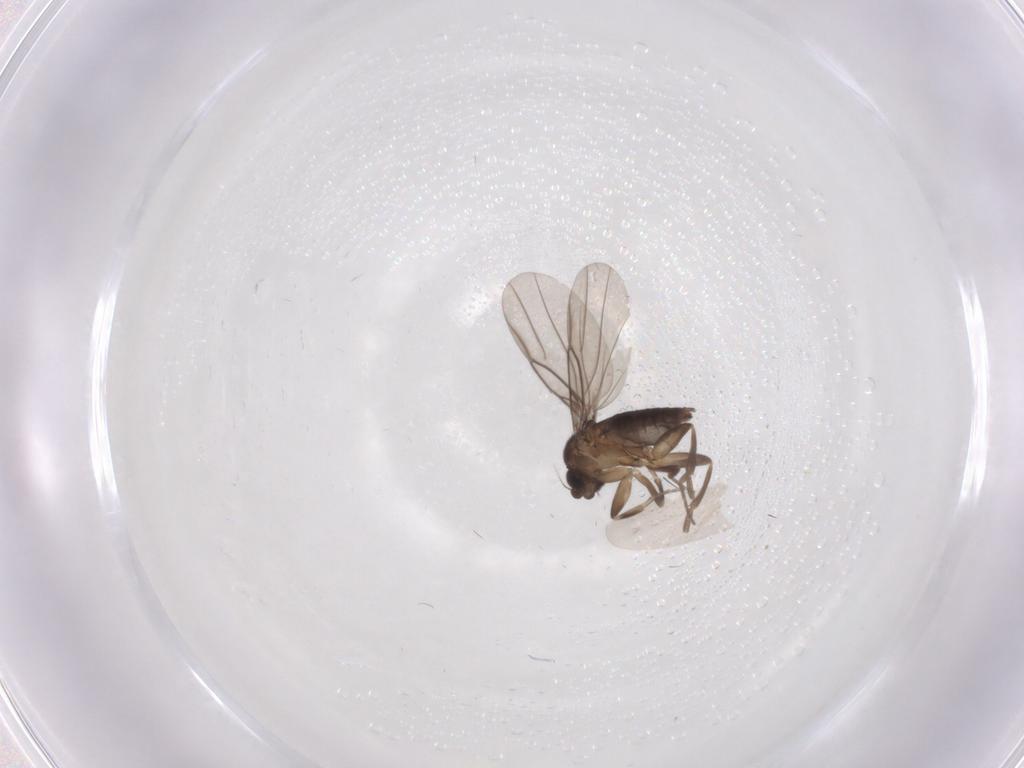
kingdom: Animalia
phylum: Arthropoda
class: Insecta
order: Diptera
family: Phoridae
